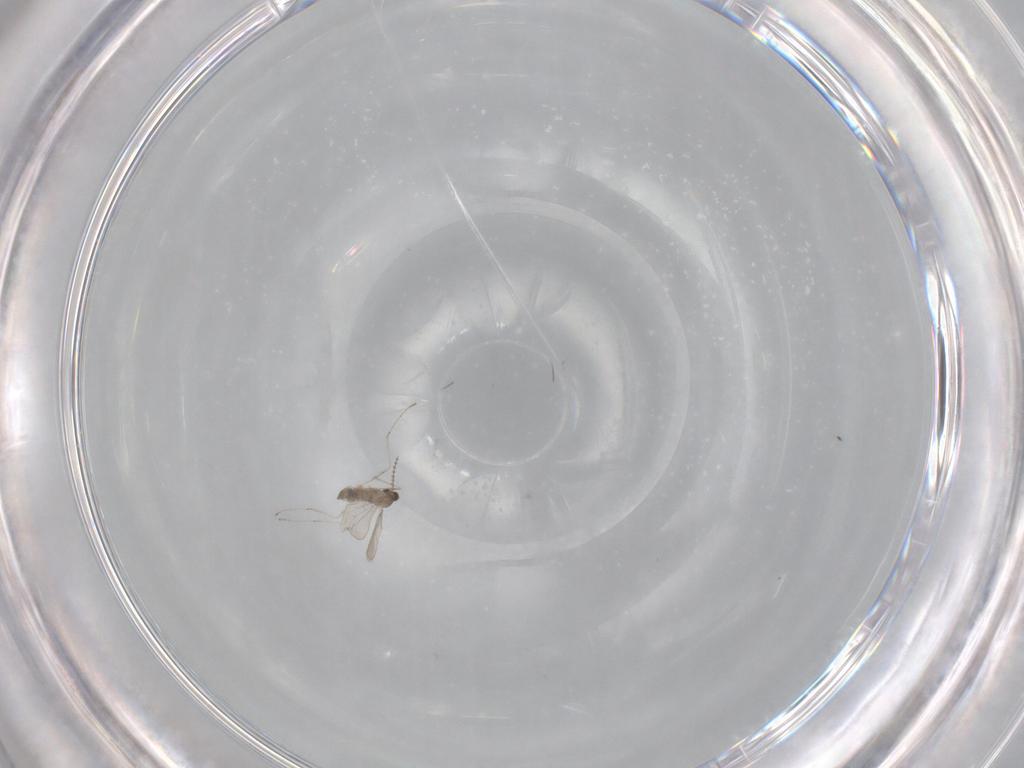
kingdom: Animalia
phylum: Arthropoda
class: Insecta
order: Diptera
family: Cecidomyiidae
